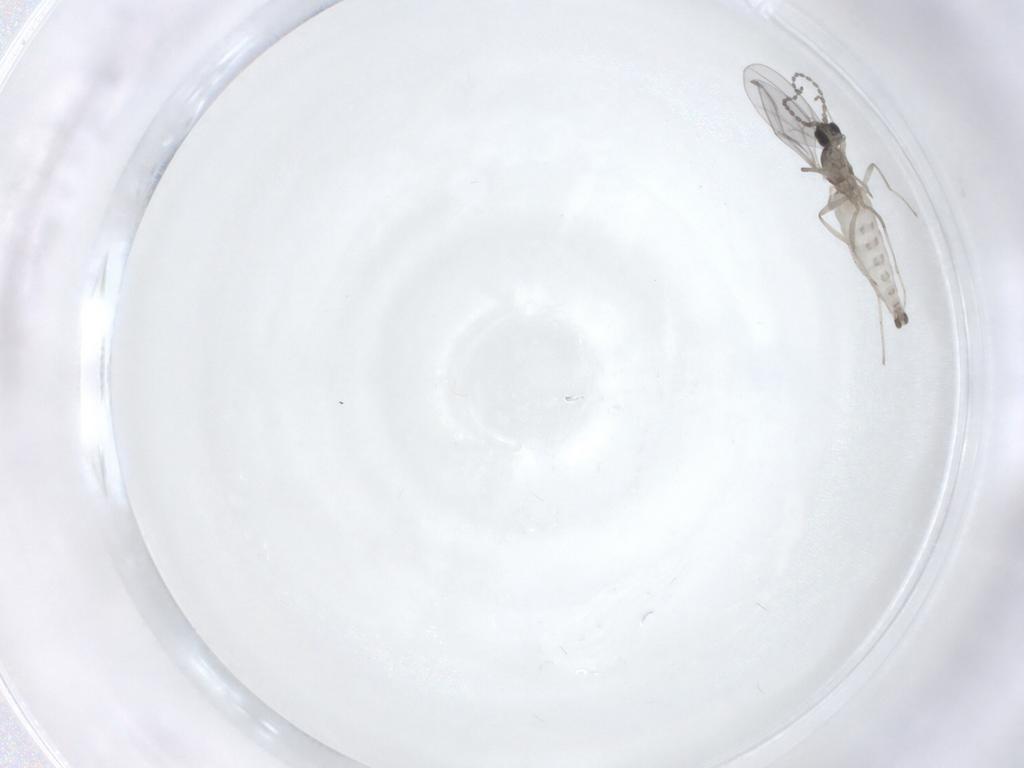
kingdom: Animalia
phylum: Arthropoda
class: Insecta
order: Diptera
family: Cecidomyiidae
